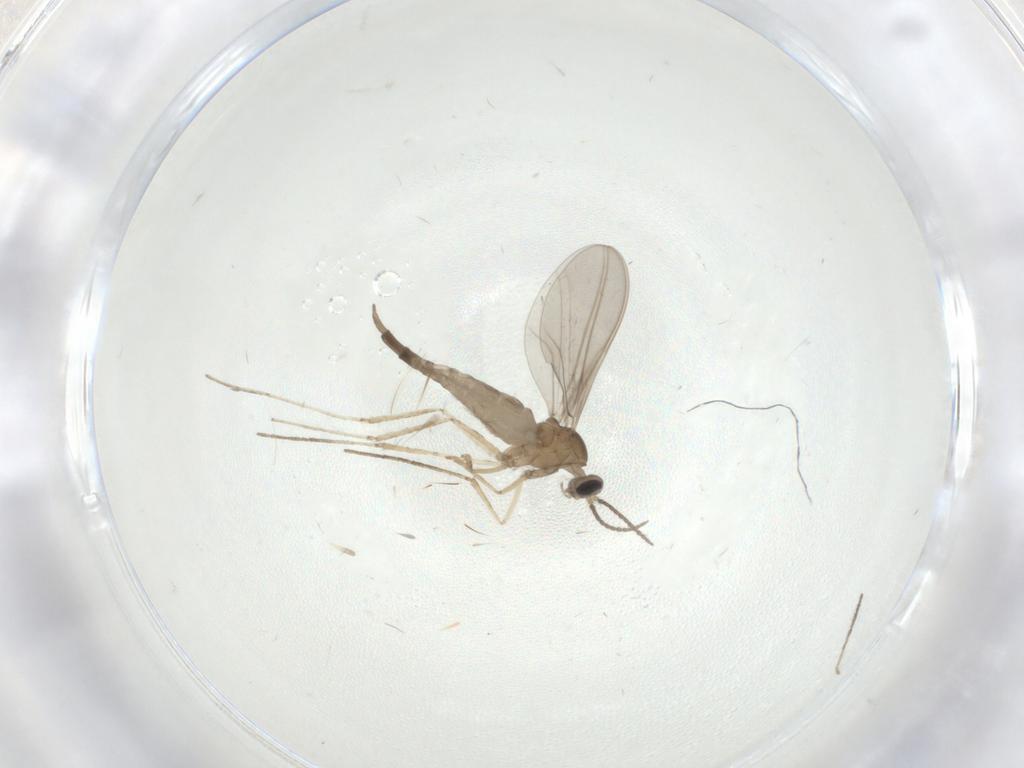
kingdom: Animalia
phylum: Arthropoda
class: Insecta
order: Diptera
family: Cecidomyiidae
